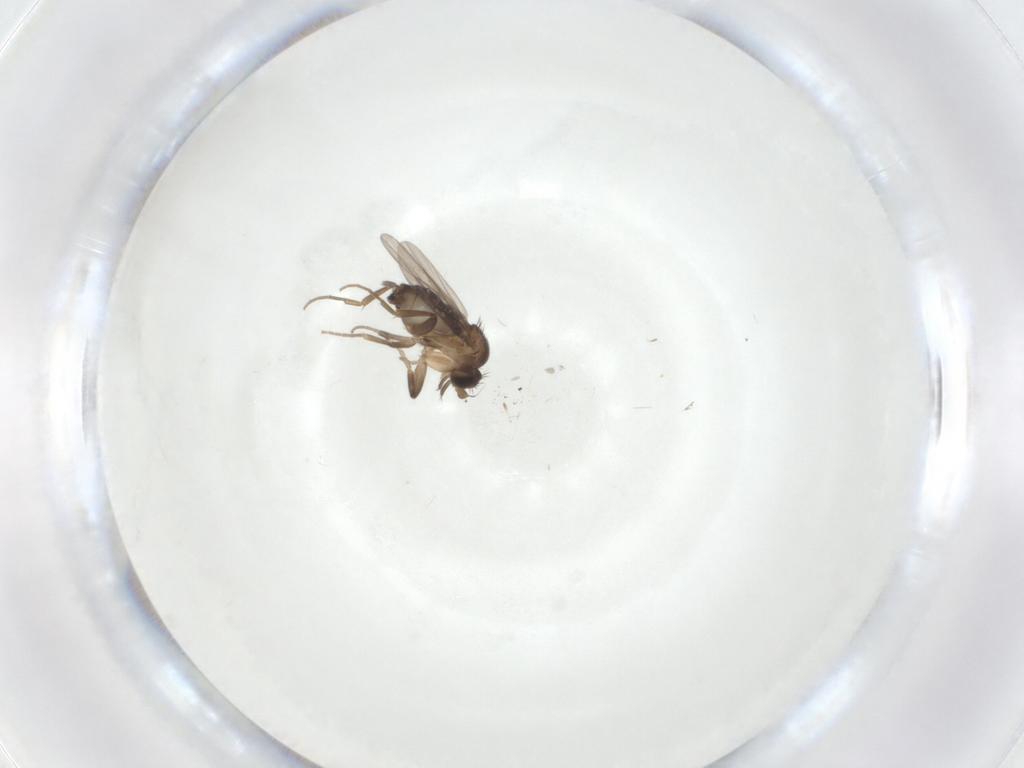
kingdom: Animalia
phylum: Arthropoda
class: Insecta
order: Diptera
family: Phoridae
